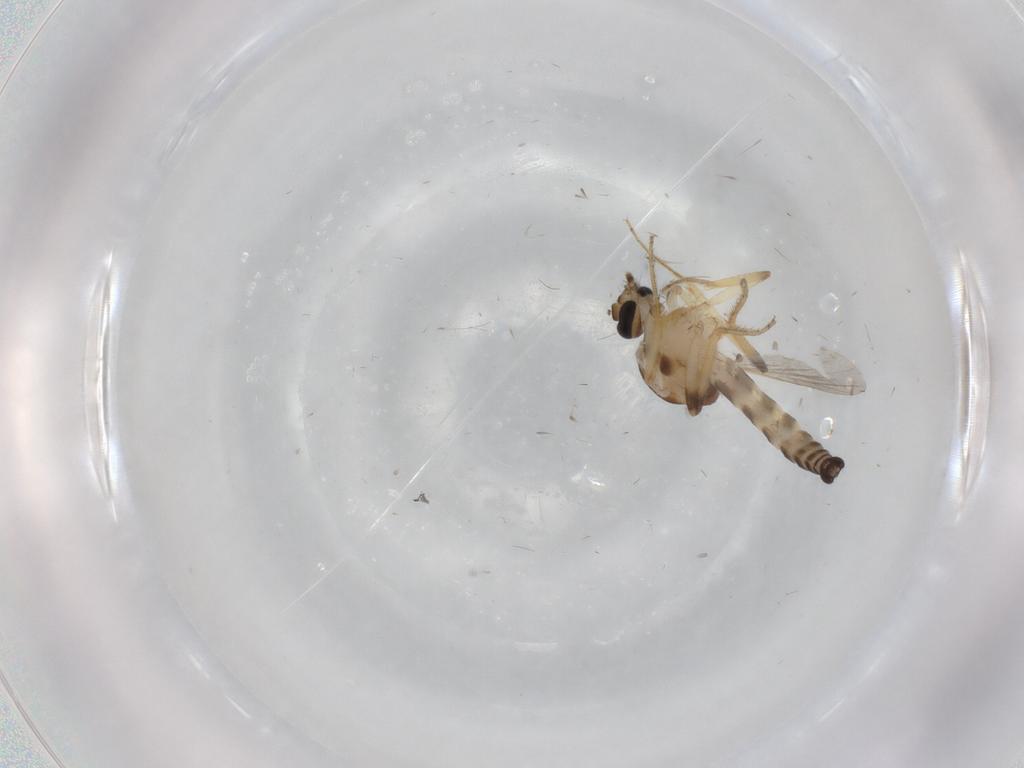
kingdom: Animalia
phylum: Arthropoda
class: Insecta
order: Diptera
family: Ceratopogonidae
